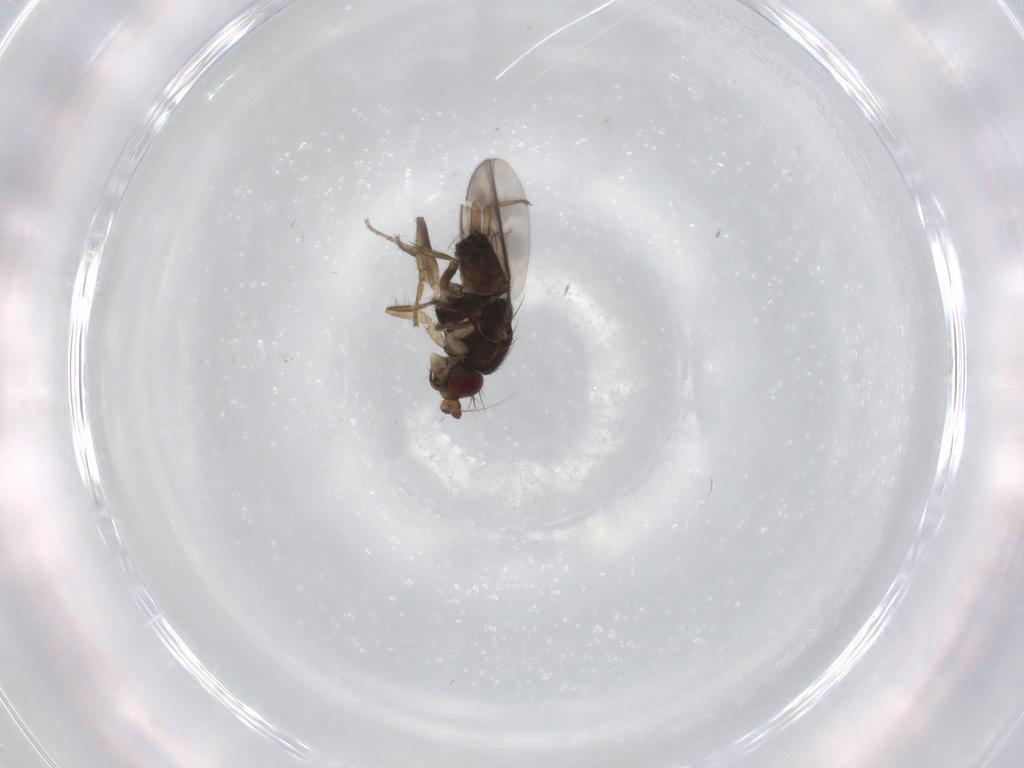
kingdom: Animalia
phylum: Arthropoda
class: Insecta
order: Diptera
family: Sphaeroceridae
